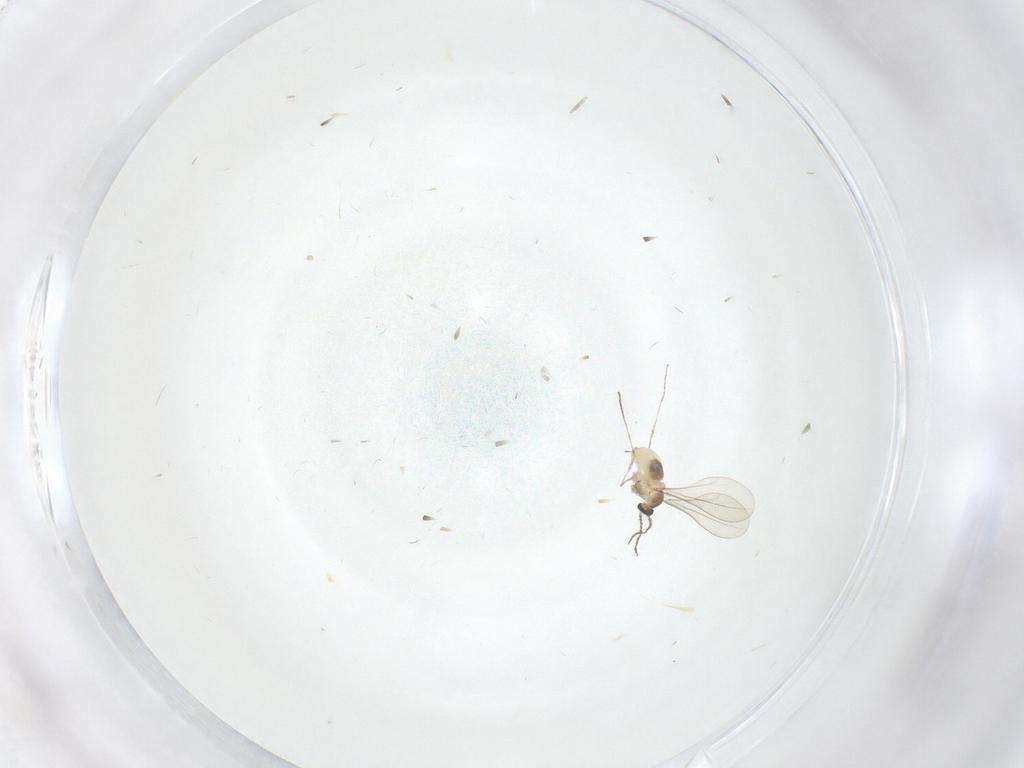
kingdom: Animalia
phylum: Arthropoda
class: Insecta
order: Diptera
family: Cecidomyiidae
